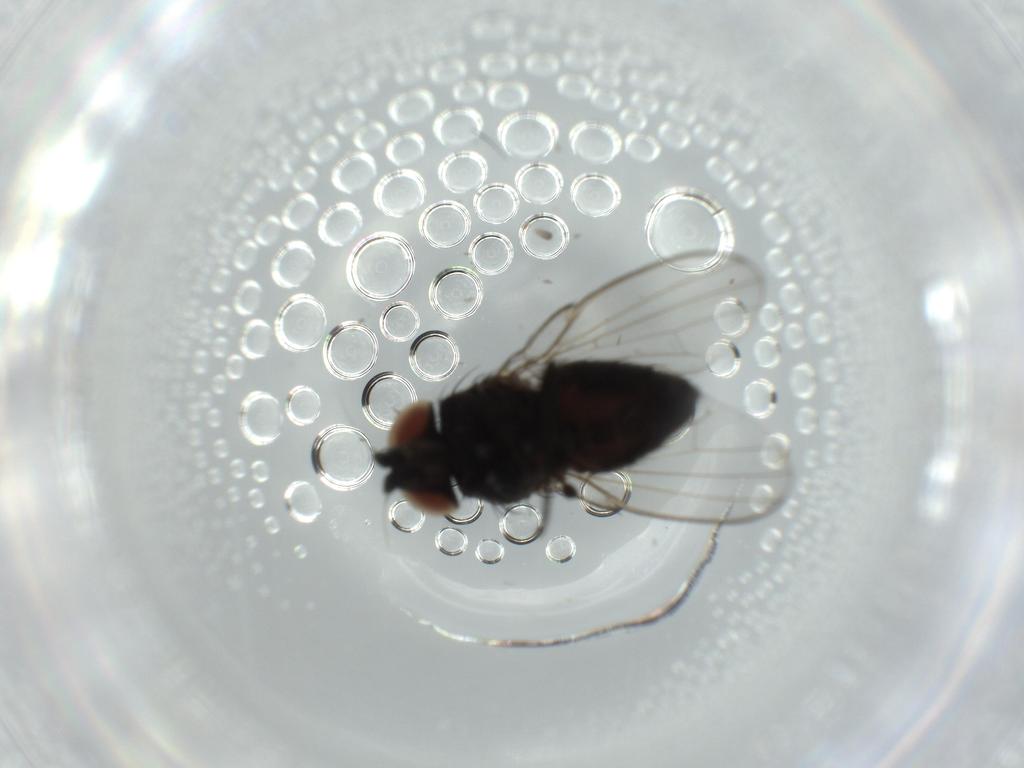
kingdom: Animalia
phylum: Arthropoda
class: Insecta
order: Diptera
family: Milichiidae
